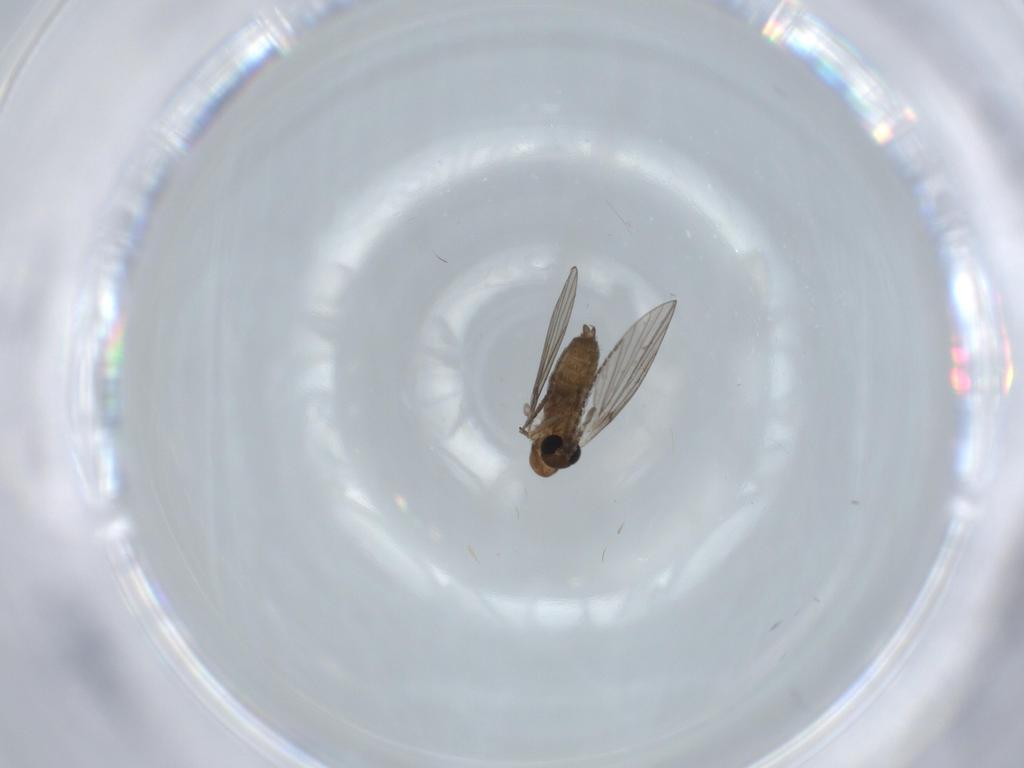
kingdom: Animalia
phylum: Arthropoda
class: Insecta
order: Diptera
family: Psychodidae
